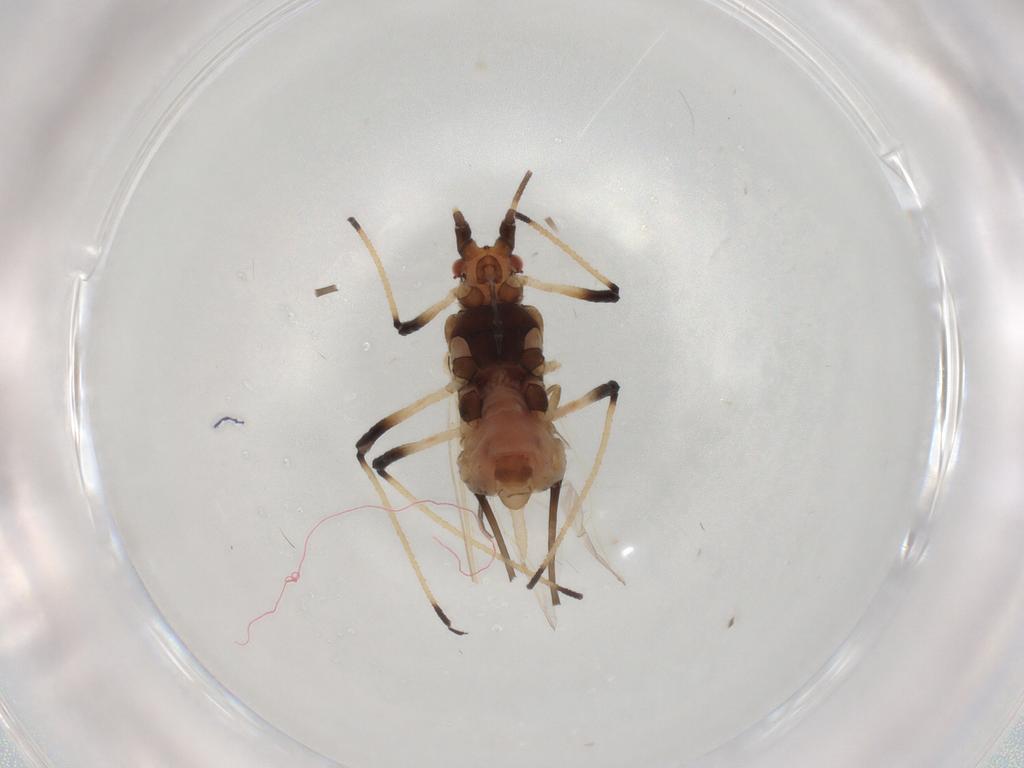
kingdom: Animalia
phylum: Arthropoda
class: Insecta
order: Hemiptera
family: Aphididae
